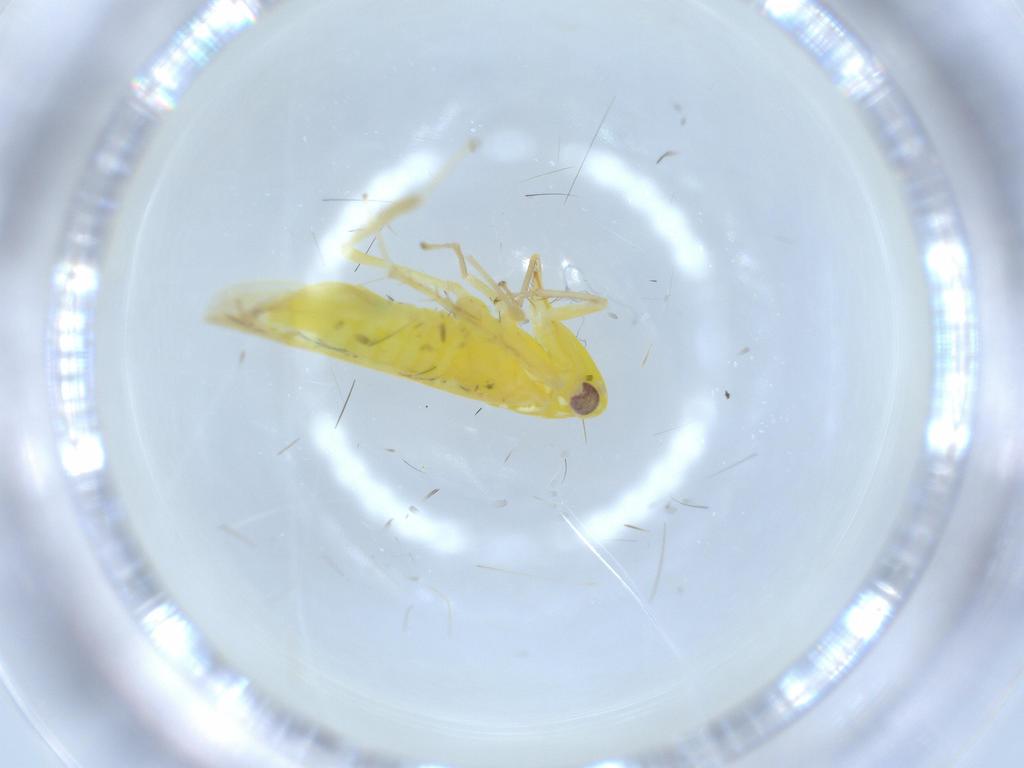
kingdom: Animalia
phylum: Arthropoda
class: Insecta
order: Hemiptera
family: Cicadellidae
